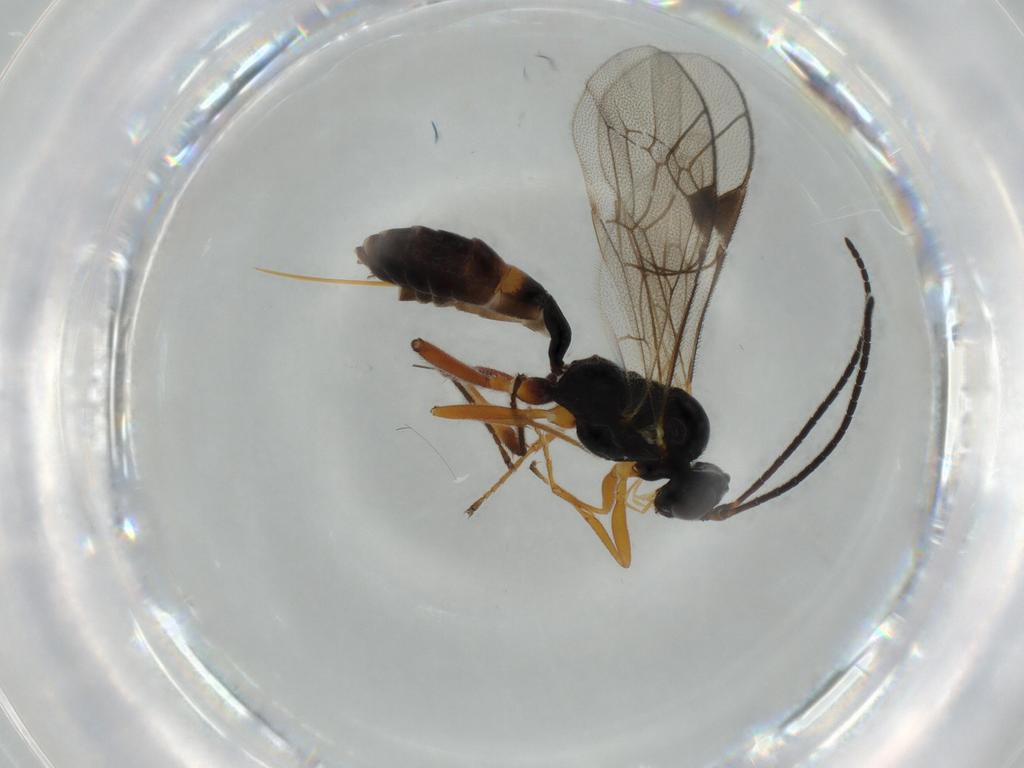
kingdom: Animalia
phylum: Arthropoda
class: Insecta
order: Hymenoptera
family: Ichneumonidae
